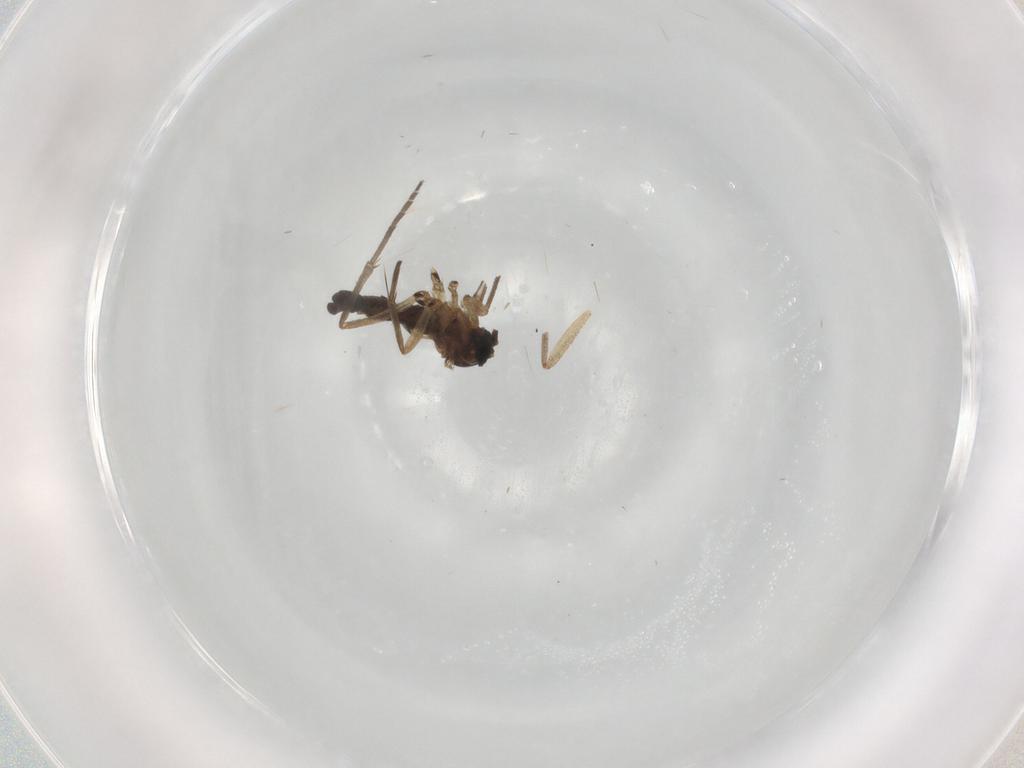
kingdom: Animalia
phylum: Arthropoda
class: Insecta
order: Diptera
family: Sciaridae
